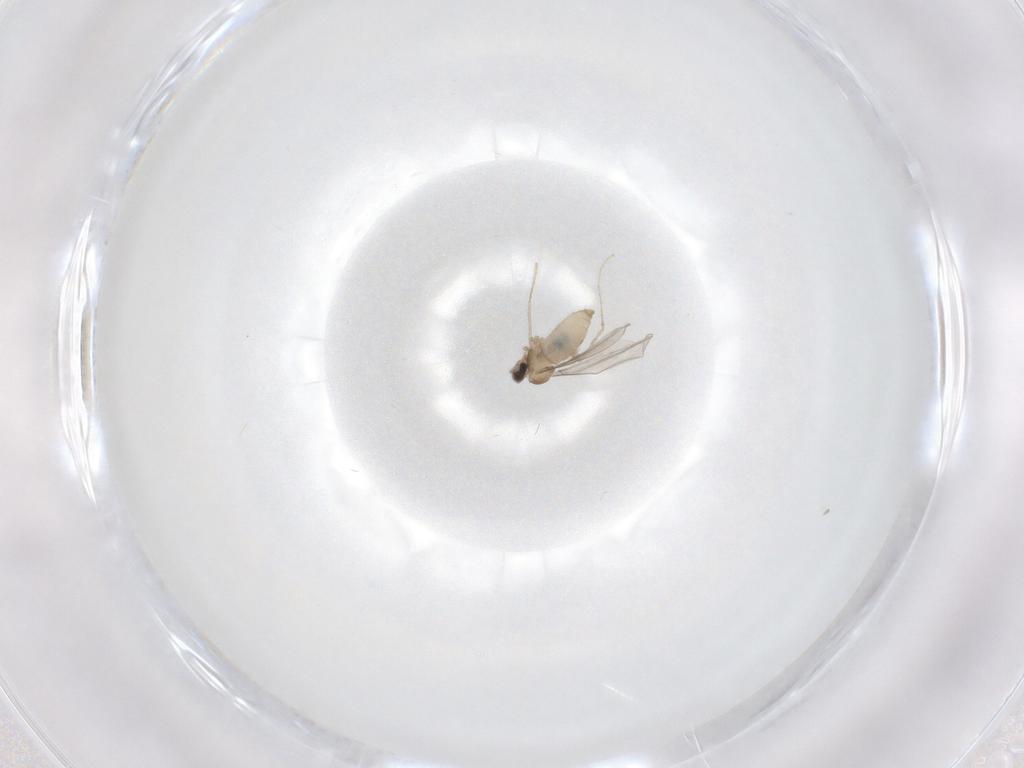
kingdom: Animalia
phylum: Arthropoda
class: Insecta
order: Diptera
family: Cecidomyiidae
